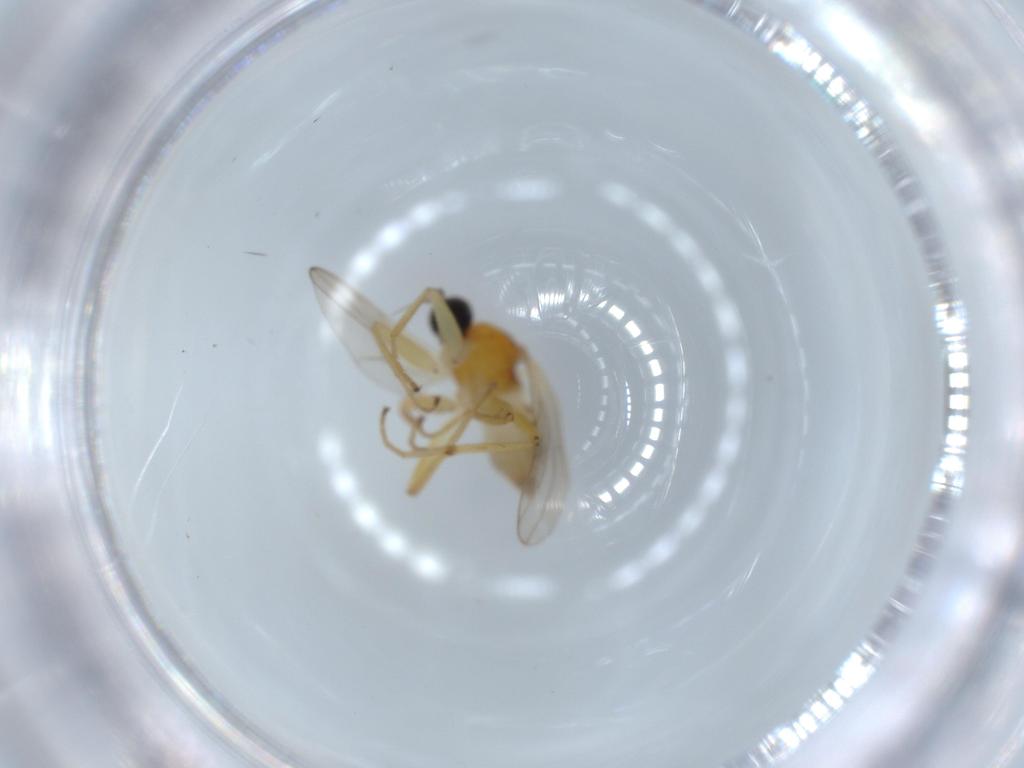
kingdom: Animalia
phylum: Arthropoda
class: Insecta
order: Diptera
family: Hybotidae
